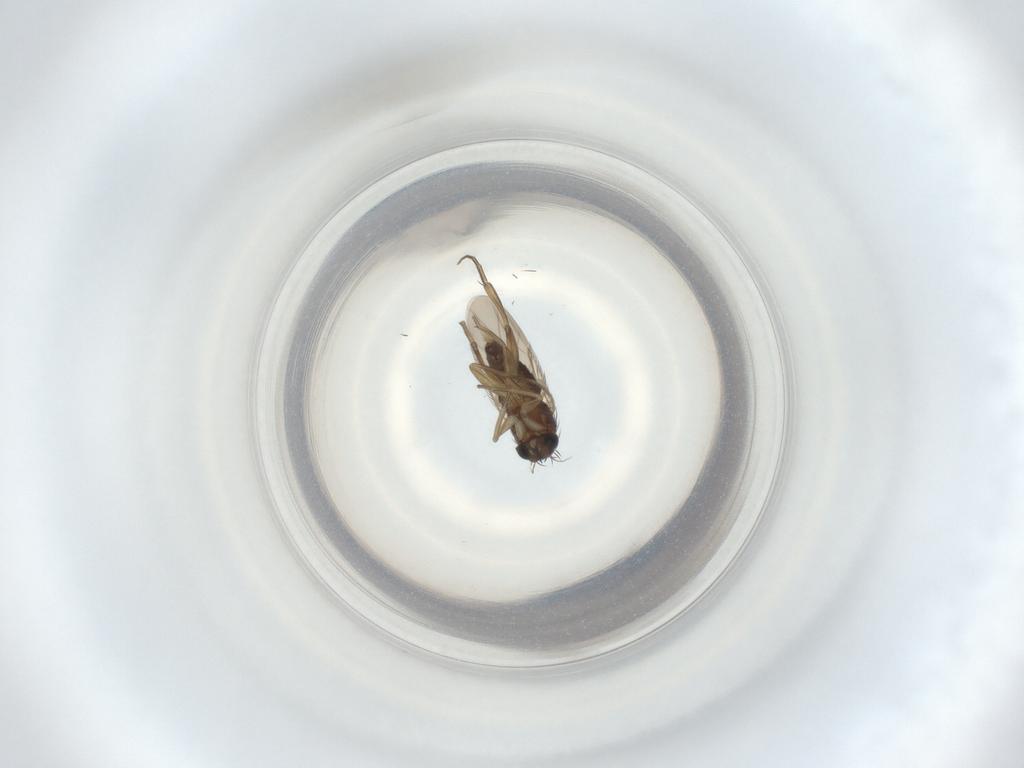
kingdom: Animalia
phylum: Arthropoda
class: Insecta
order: Diptera
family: Phoridae
